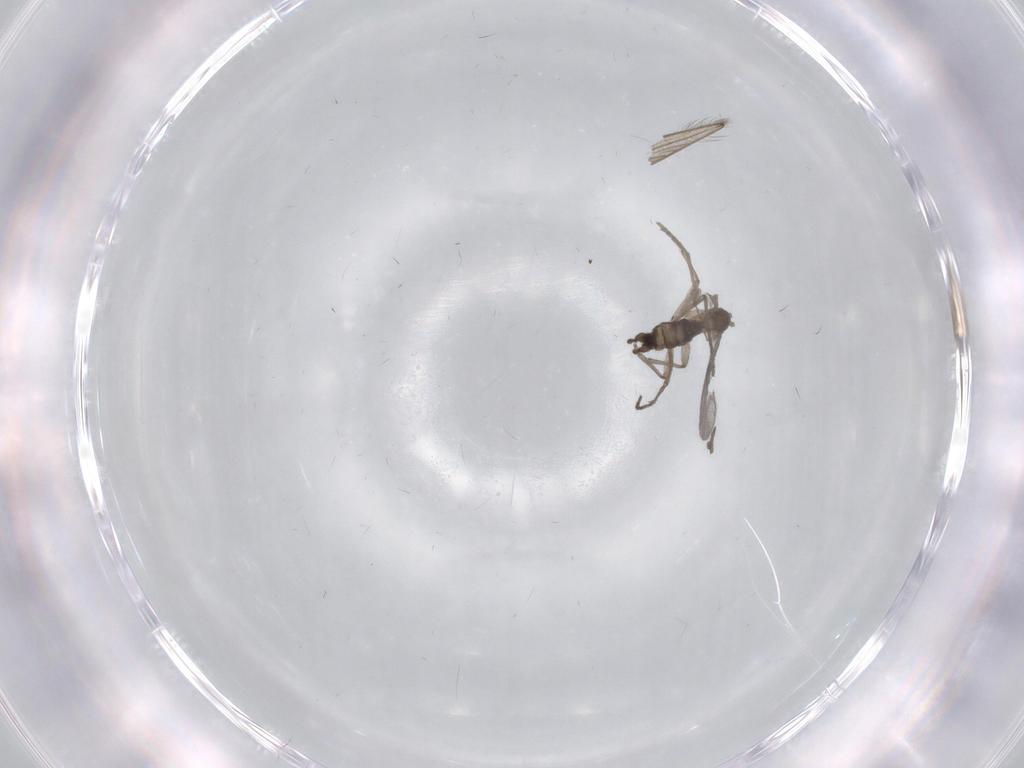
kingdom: Animalia
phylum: Arthropoda
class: Insecta
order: Diptera
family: Sciaridae
